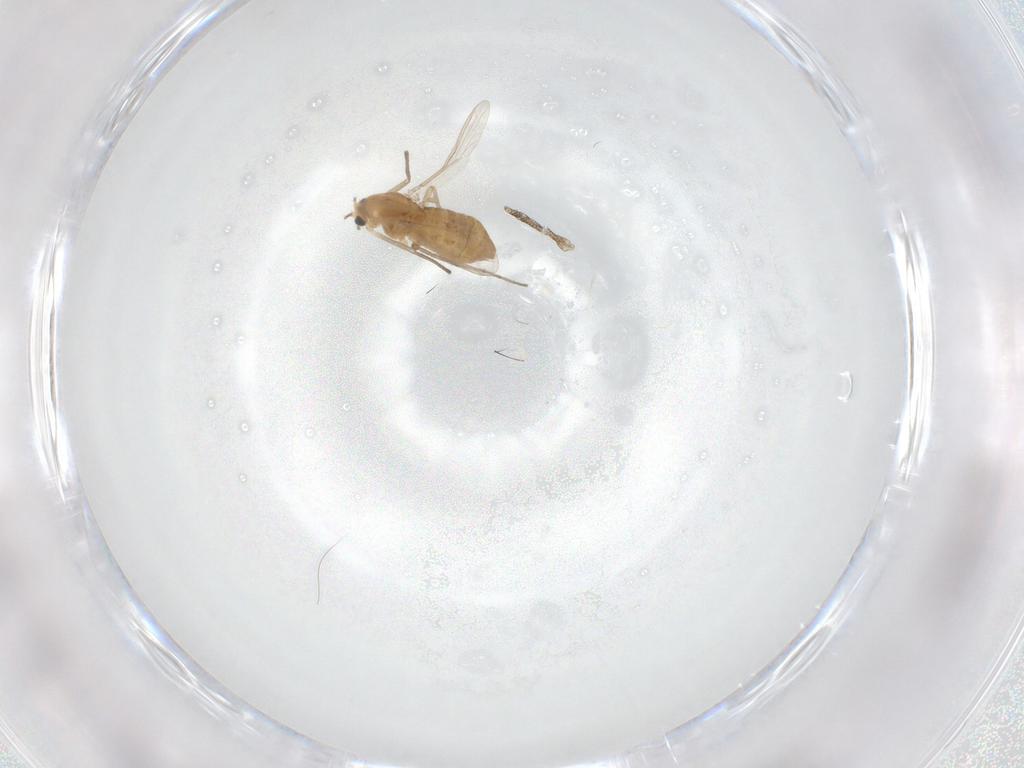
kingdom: Animalia
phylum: Arthropoda
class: Insecta
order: Diptera
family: Chironomidae
